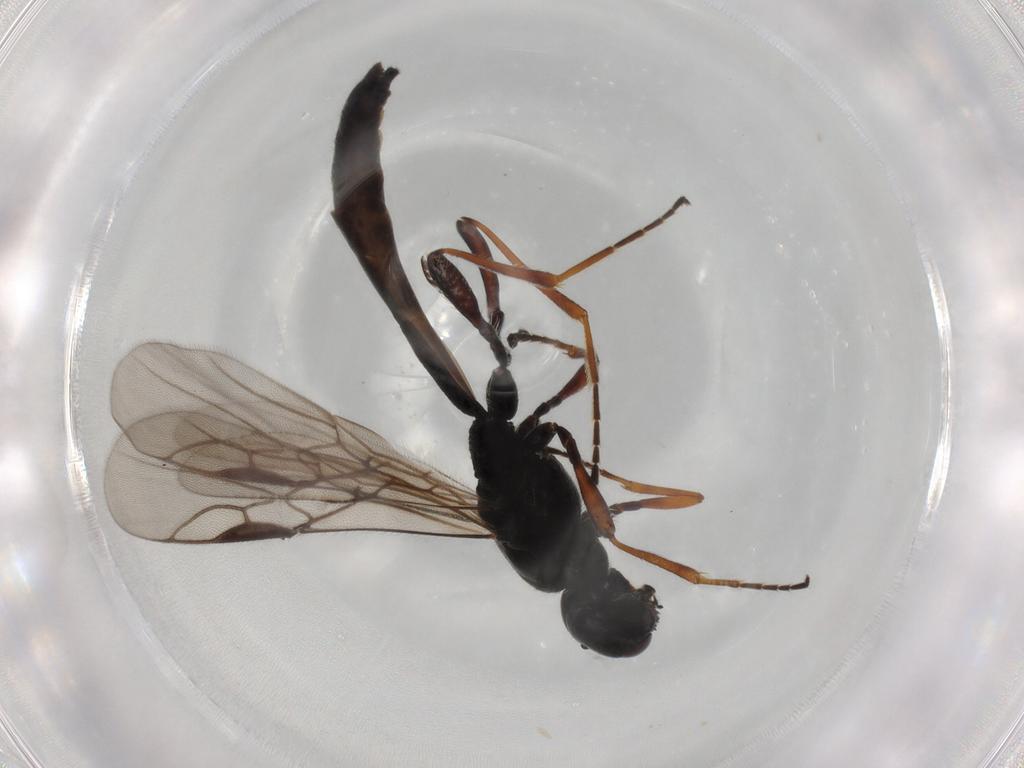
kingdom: Animalia
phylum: Arthropoda
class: Insecta
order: Hymenoptera
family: Braconidae
